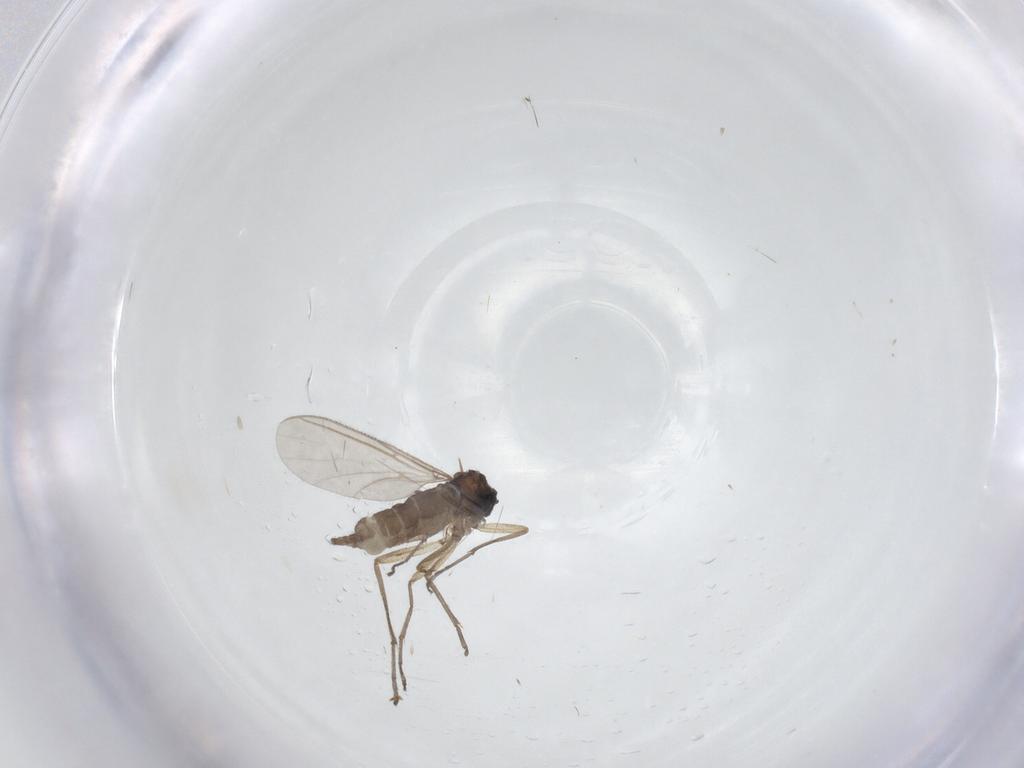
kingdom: Animalia
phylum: Arthropoda
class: Insecta
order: Diptera
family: Sciaridae
